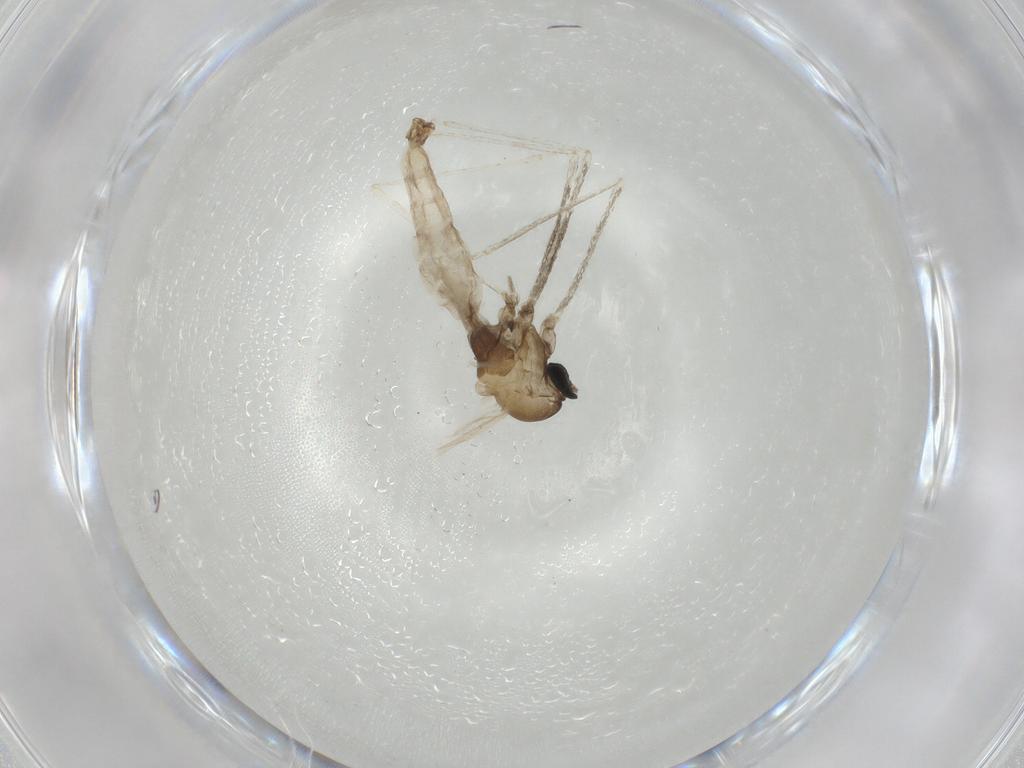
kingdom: Animalia
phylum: Arthropoda
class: Insecta
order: Diptera
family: Cecidomyiidae
